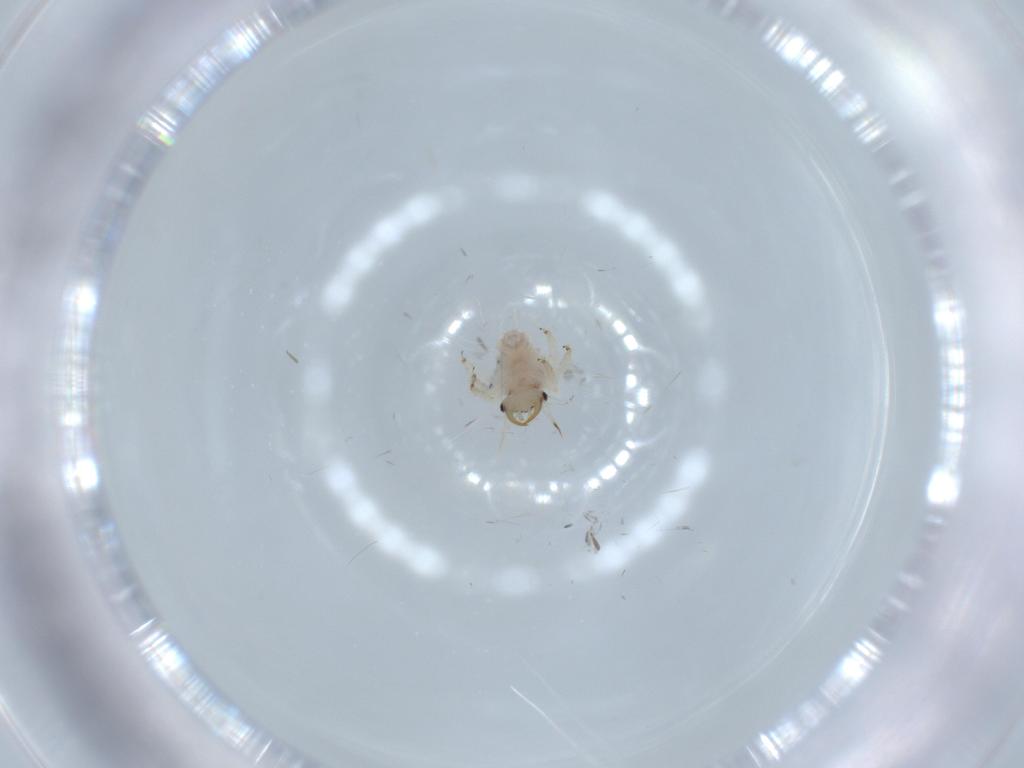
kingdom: Animalia
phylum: Arthropoda
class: Insecta
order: Neuroptera
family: Chrysopidae
